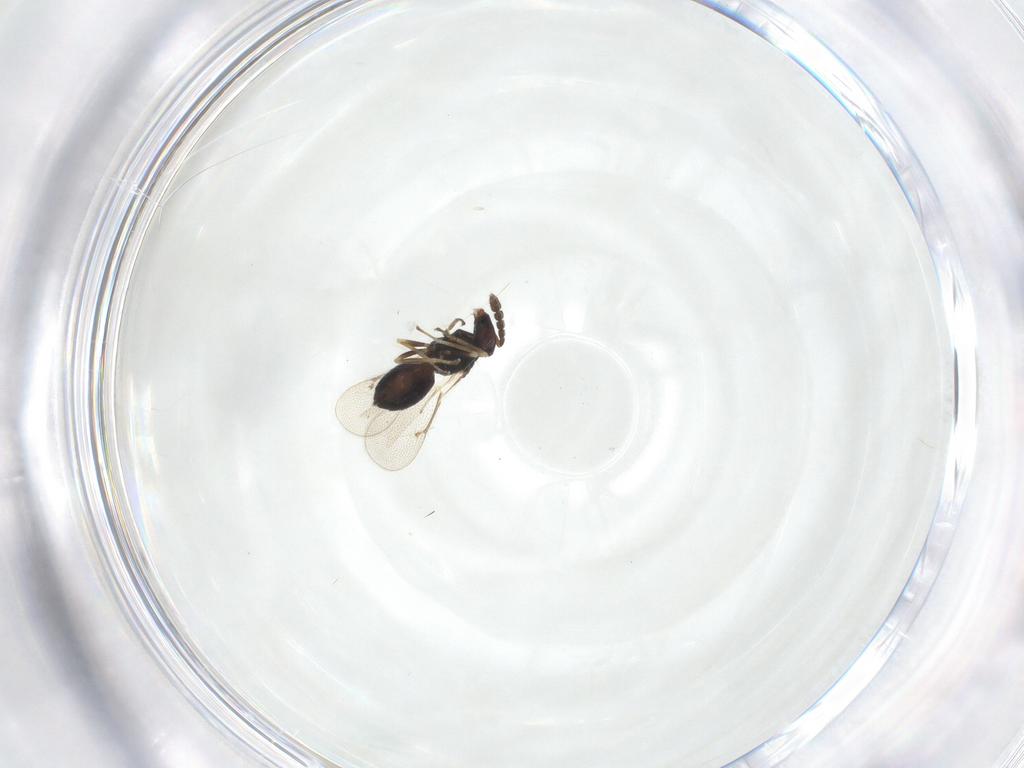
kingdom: Animalia
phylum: Arthropoda
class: Insecta
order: Hymenoptera
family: Eulophidae
